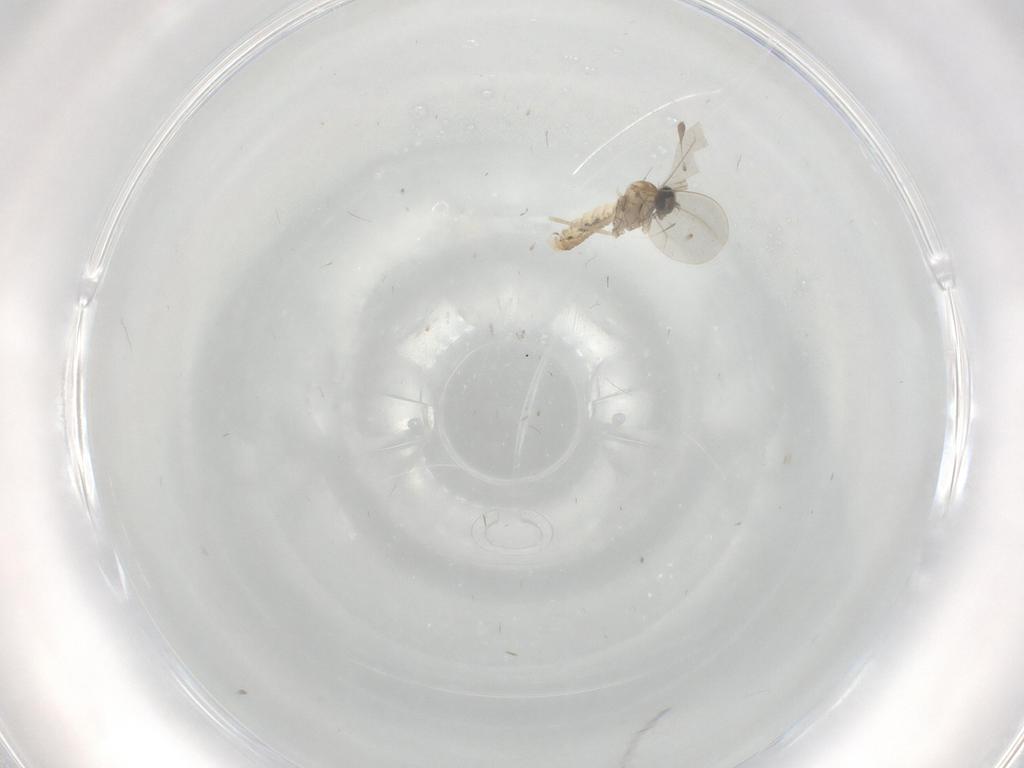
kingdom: Animalia
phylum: Arthropoda
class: Insecta
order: Diptera
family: Cecidomyiidae
